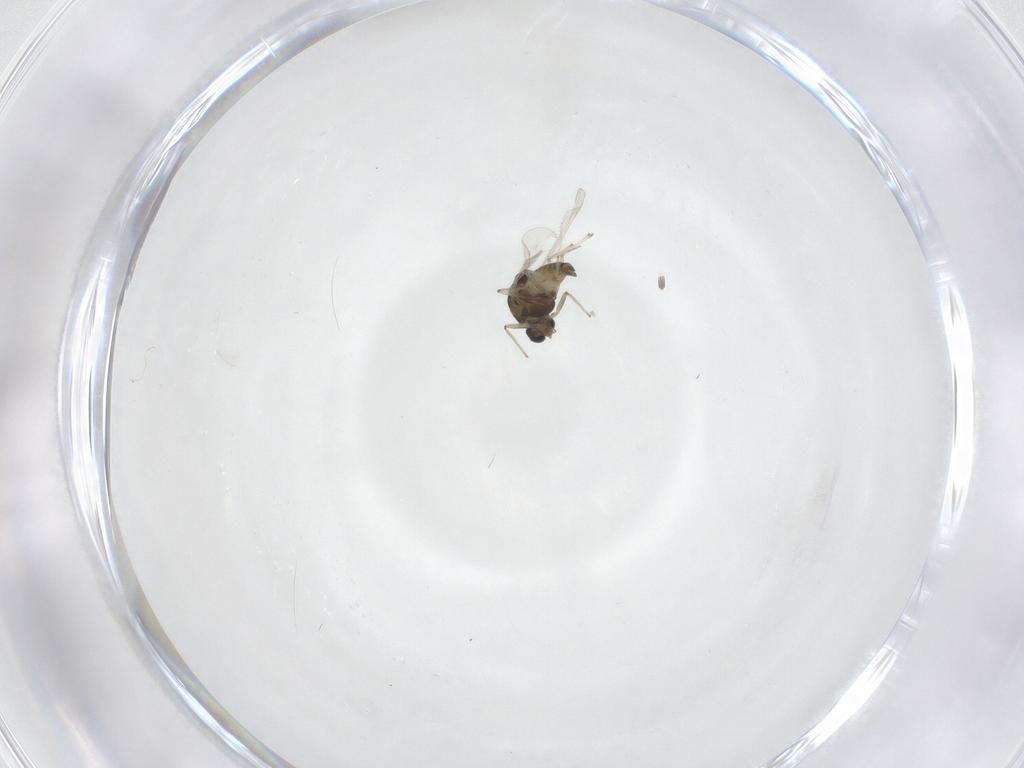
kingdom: Animalia
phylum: Arthropoda
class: Insecta
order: Diptera
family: Chironomidae
